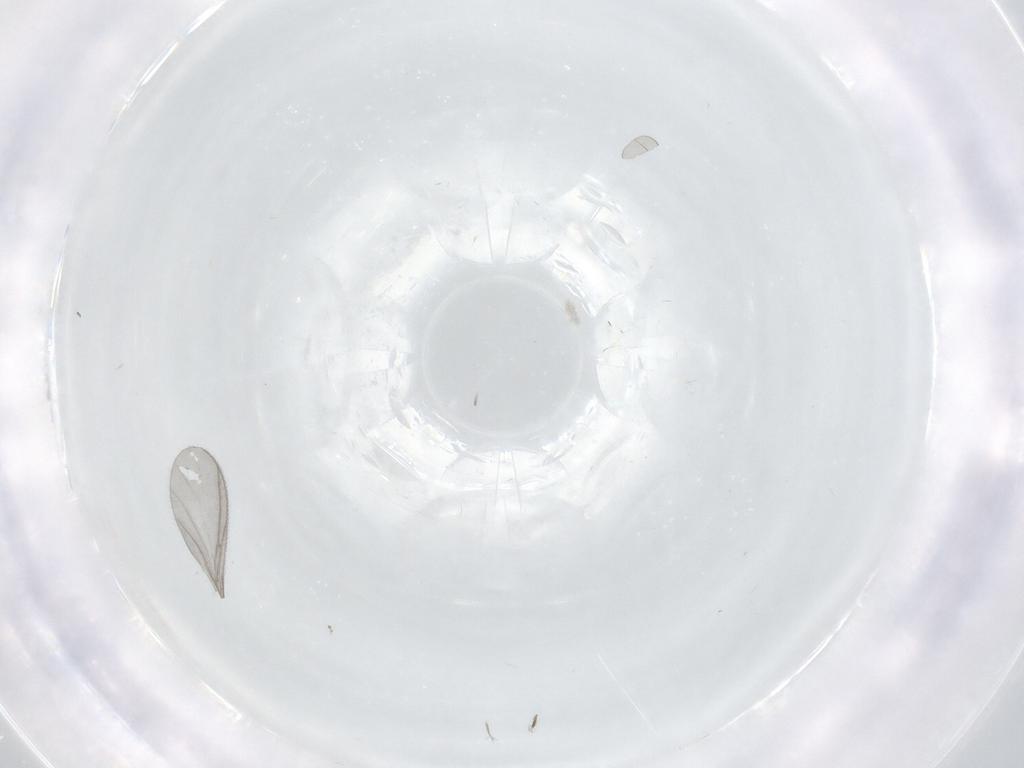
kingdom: Animalia
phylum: Arthropoda
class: Insecta
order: Diptera
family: Sciaridae
